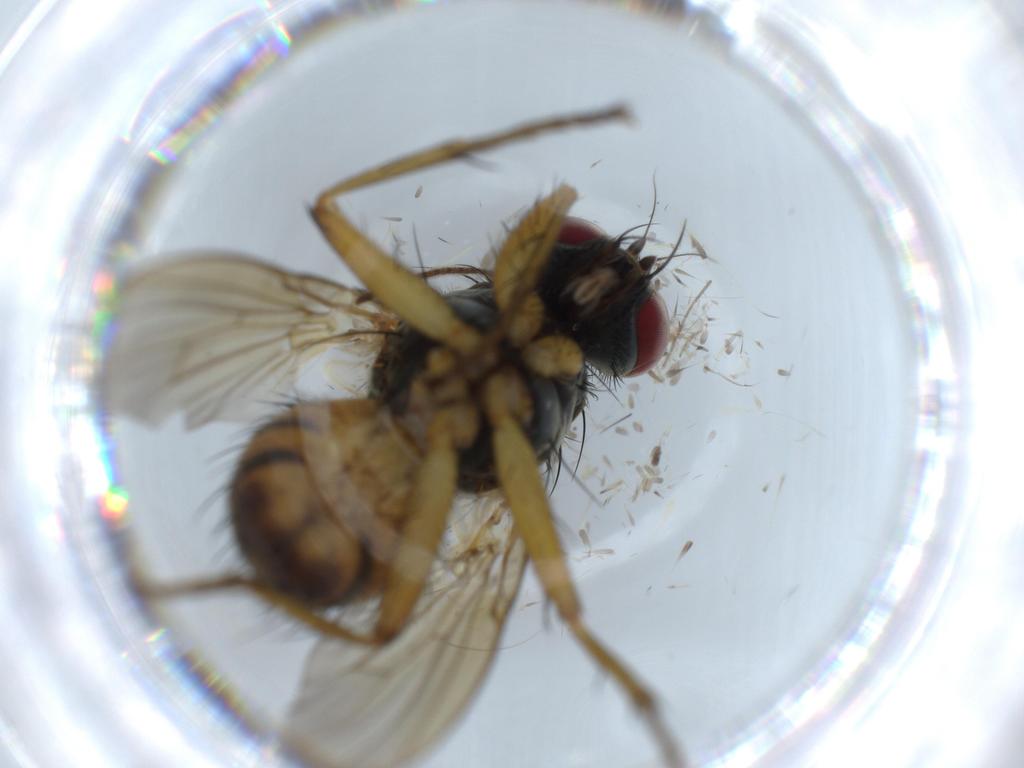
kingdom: Animalia
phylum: Arthropoda
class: Insecta
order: Diptera
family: Muscidae
